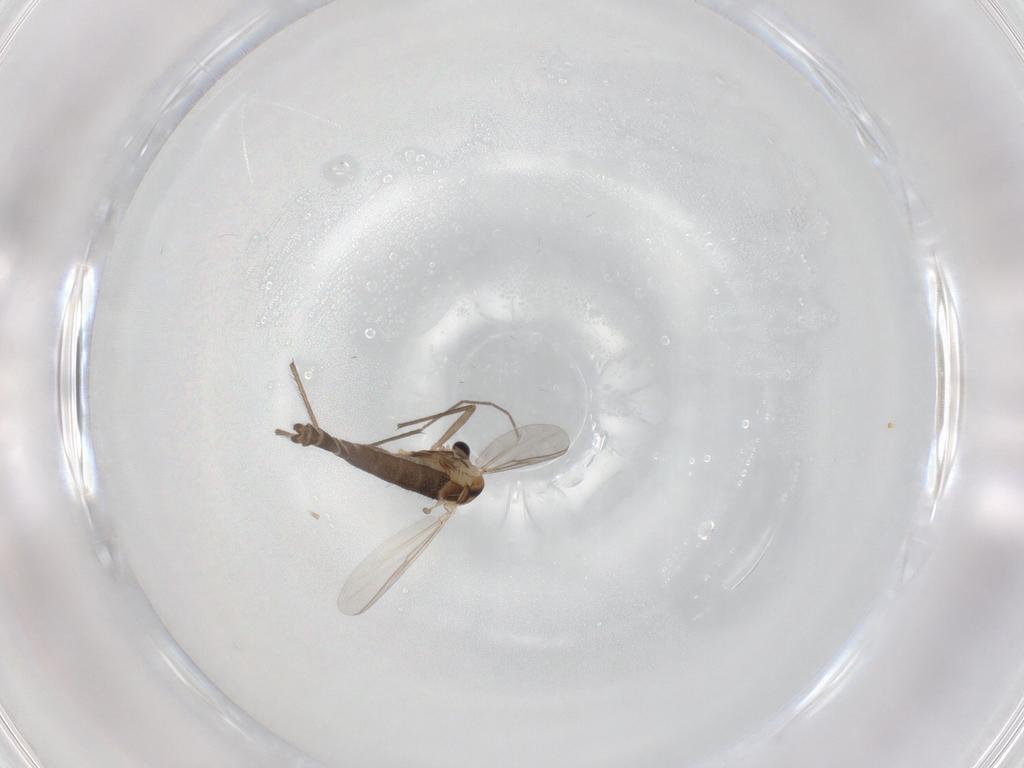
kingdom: Animalia
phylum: Arthropoda
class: Insecta
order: Diptera
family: Chironomidae
